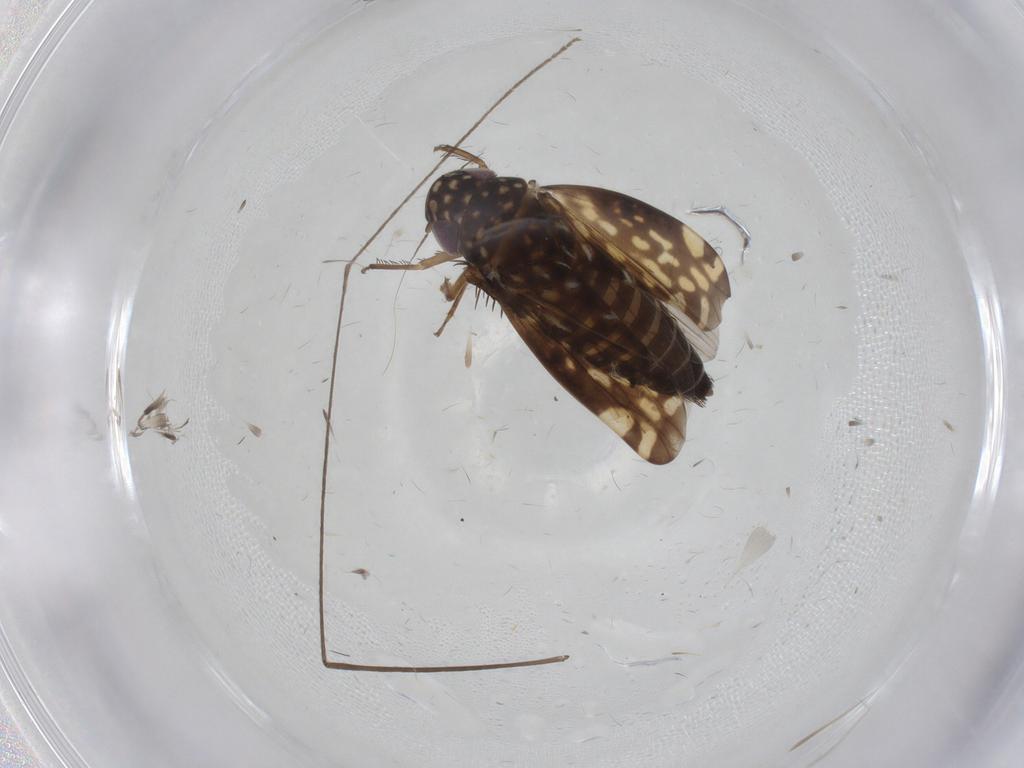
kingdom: Animalia
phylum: Arthropoda
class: Insecta
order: Hemiptera
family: Cicadellidae
